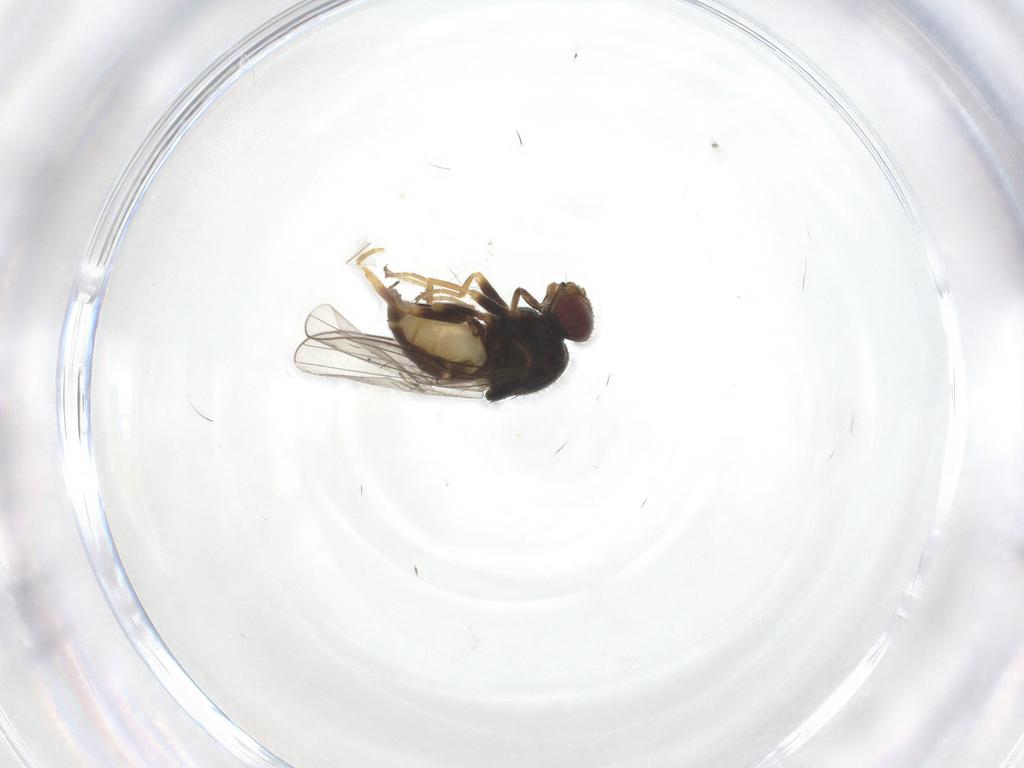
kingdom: Animalia
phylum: Arthropoda
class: Insecta
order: Diptera
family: Chloropidae
